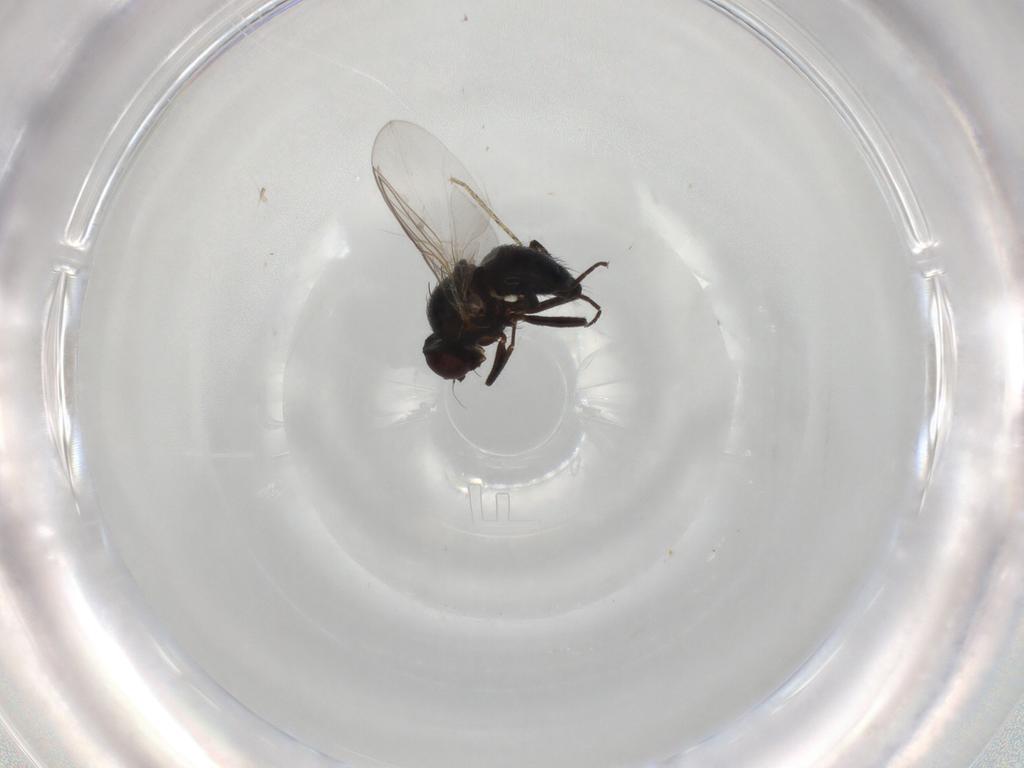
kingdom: Animalia
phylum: Arthropoda
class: Insecta
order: Diptera
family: Agromyzidae
